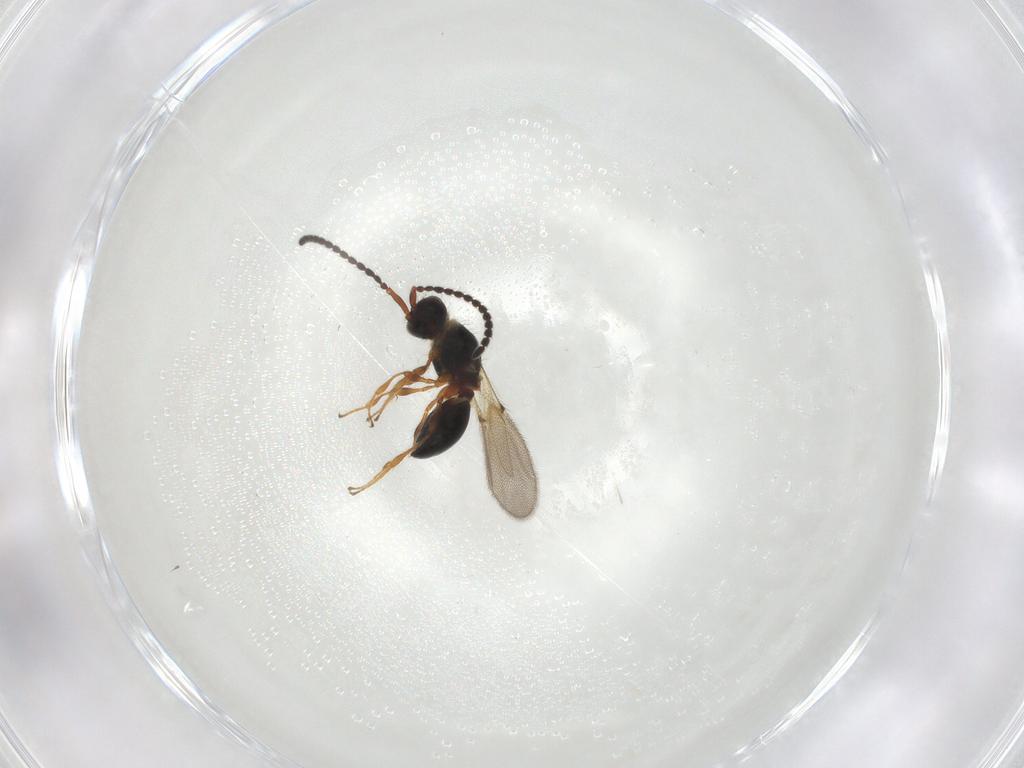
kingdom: Animalia
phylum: Arthropoda
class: Insecta
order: Hymenoptera
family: Diapriidae
